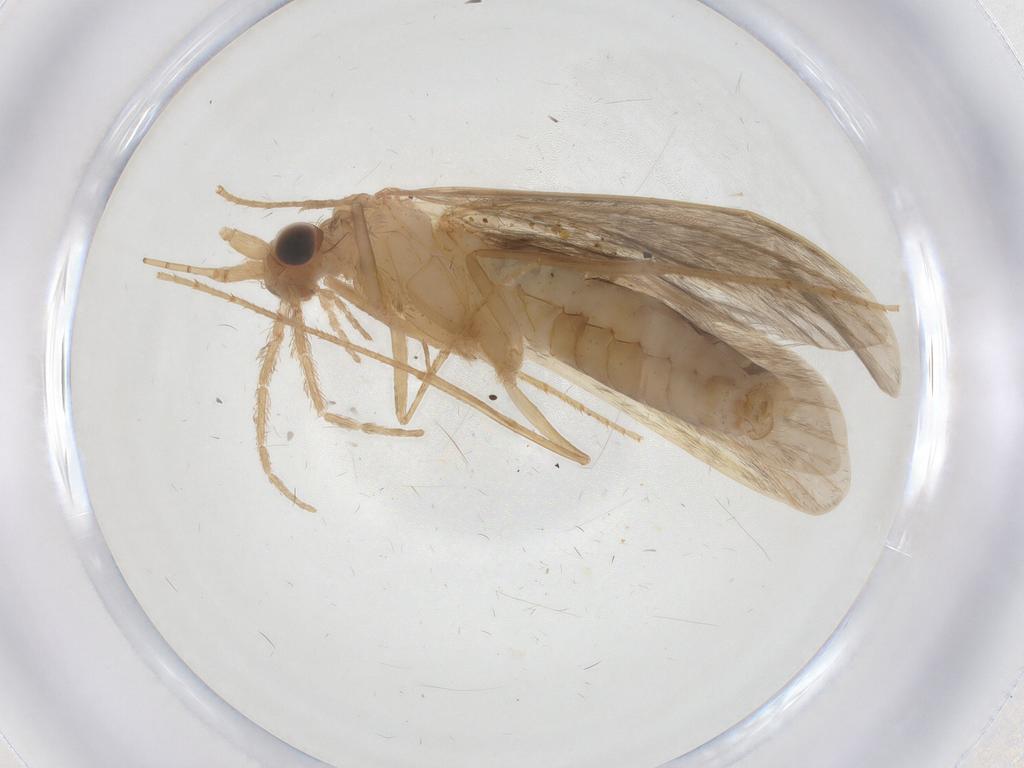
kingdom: Animalia
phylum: Arthropoda
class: Insecta
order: Trichoptera
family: Leptoceridae
